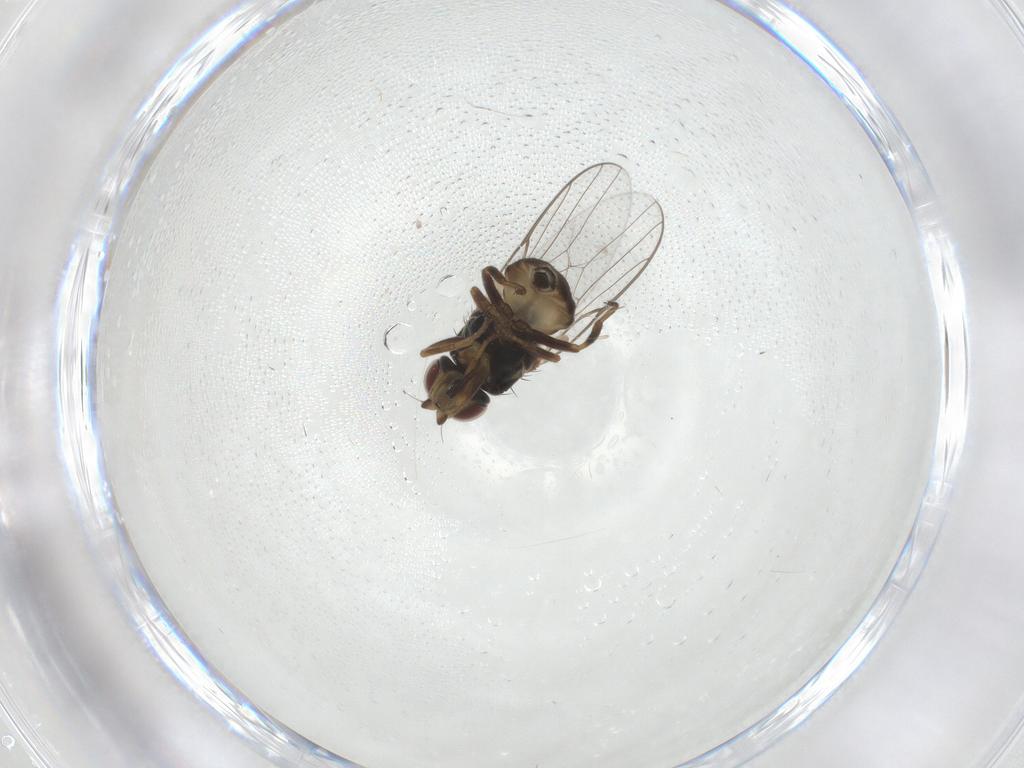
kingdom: Animalia
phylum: Arthropoda
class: Insecta
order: Diptera
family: Chloropidae
